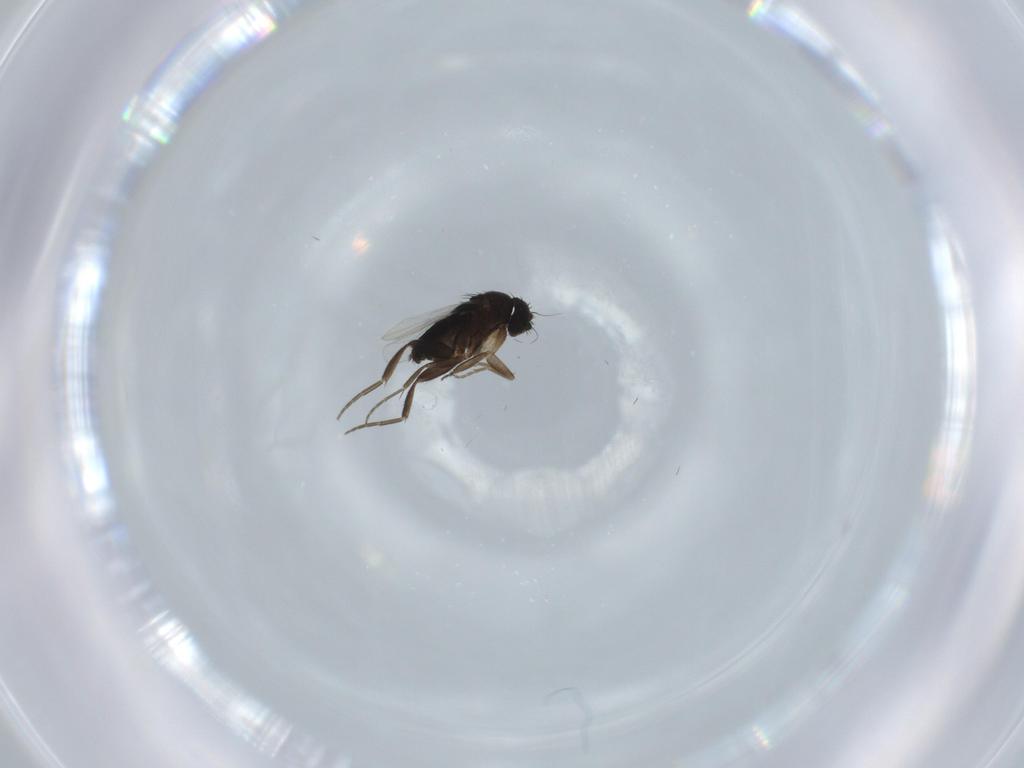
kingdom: Animalia
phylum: Arthropoda
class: Insecta
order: Diptera
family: Phoridae
